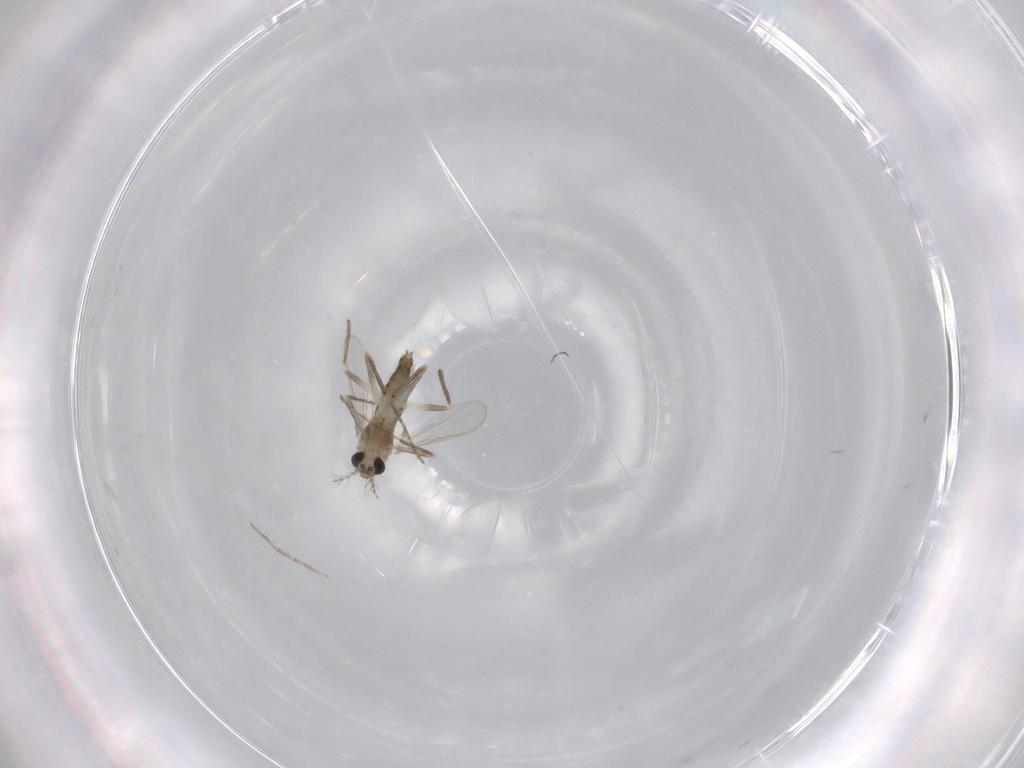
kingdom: Animalia
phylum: Arthropoda
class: Insecta
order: Diptera
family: Chironomidae
